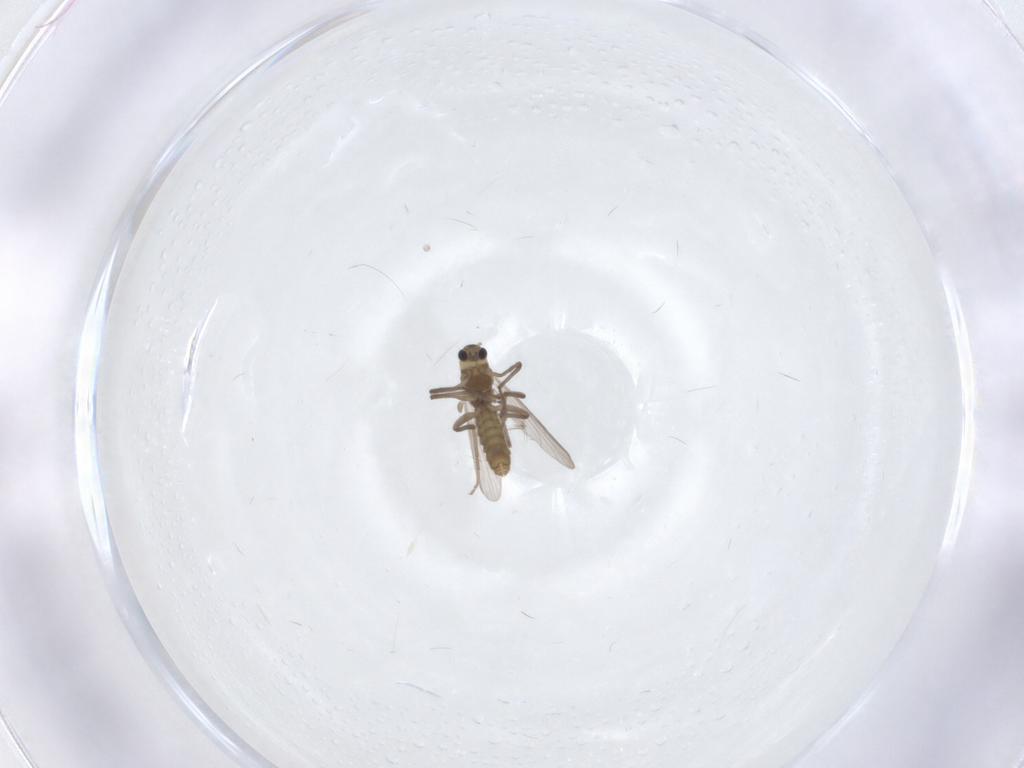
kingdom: Animalia
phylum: Arthropoda
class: Insecta
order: Diptera
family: Chironomidae
